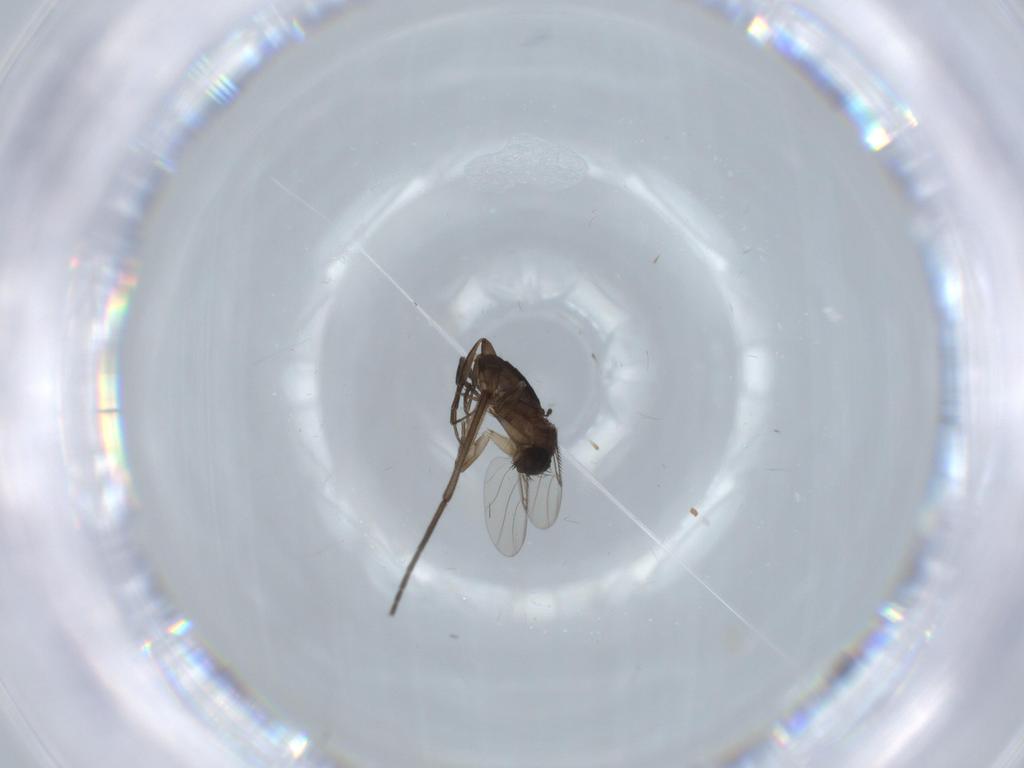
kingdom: Animalia
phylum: Arthropoda
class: Insecta
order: Diptera
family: Phoridae
